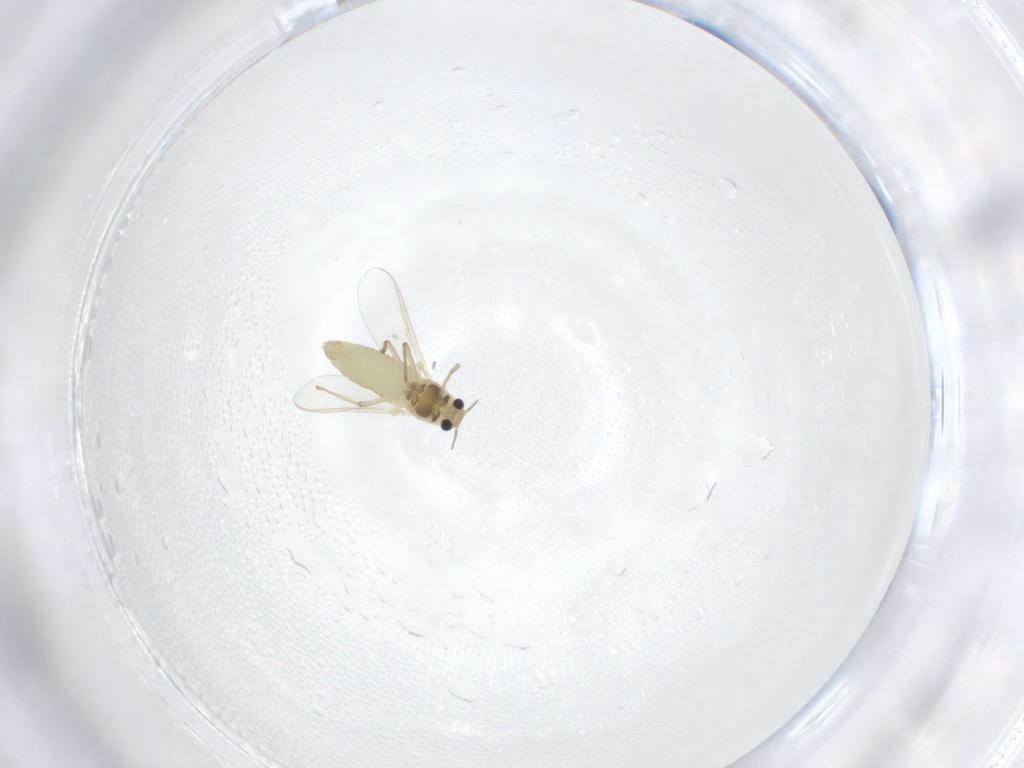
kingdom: Animalia
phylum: Arthropoda
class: Insecta
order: Diptera
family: Chironomidae
